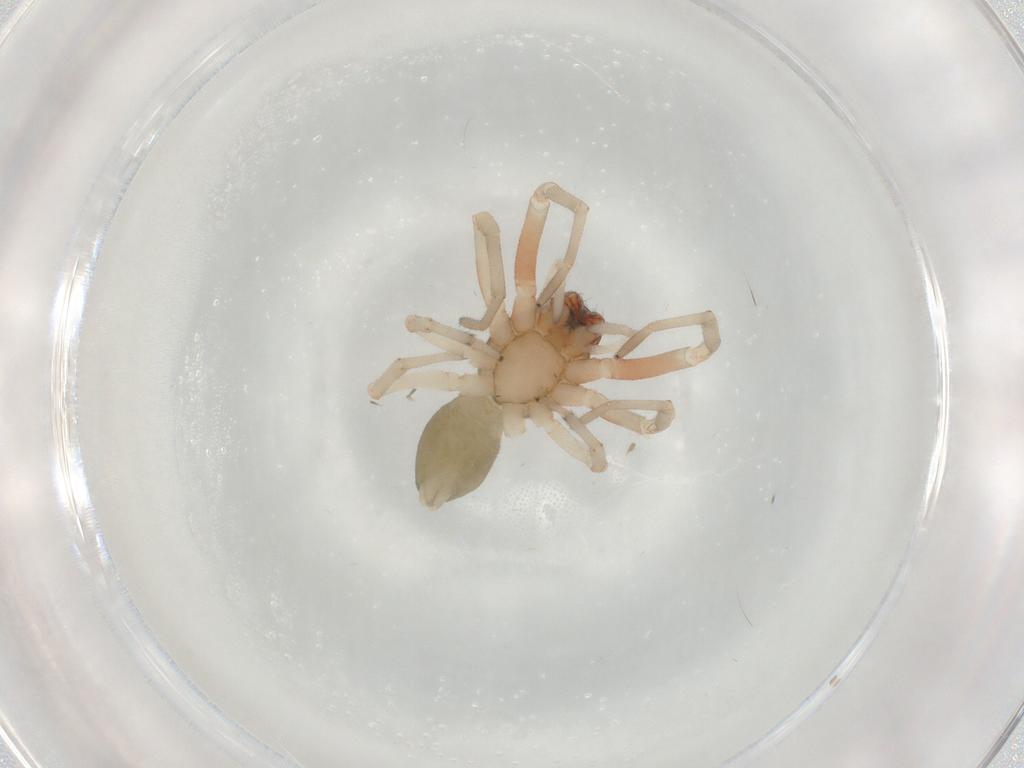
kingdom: Animalia
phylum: Arthropoda
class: Arachnida
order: Araneae
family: Trachelidae
